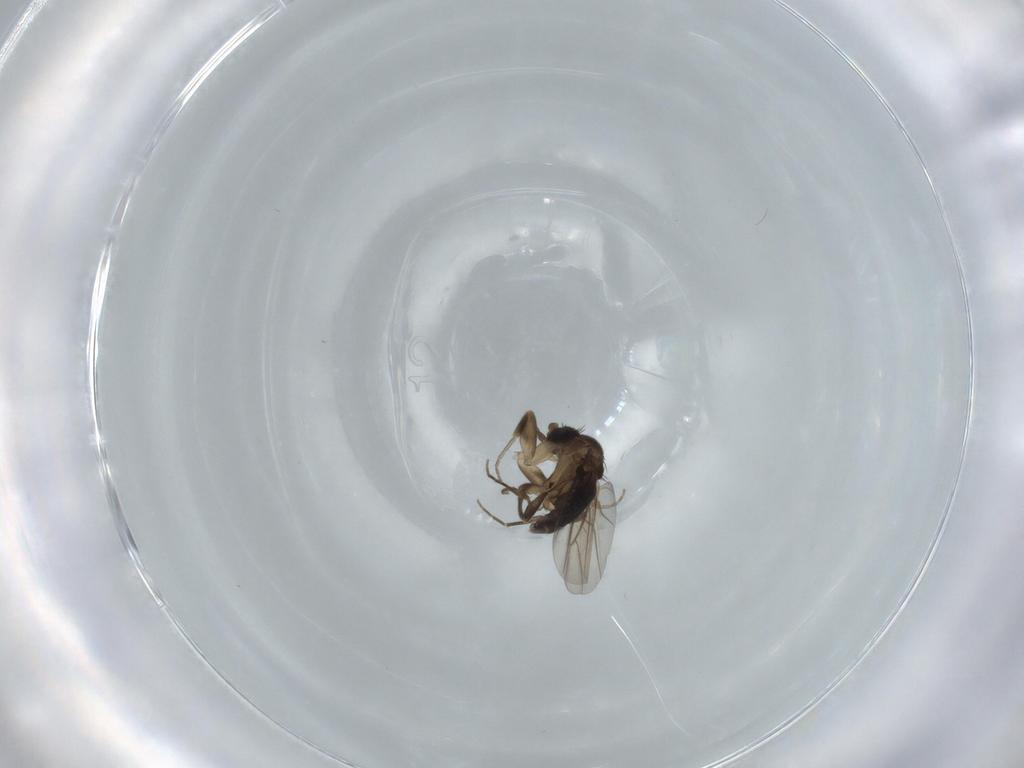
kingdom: Animalia
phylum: Arthropoda
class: Insecta
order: Diptera
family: Phoridae
